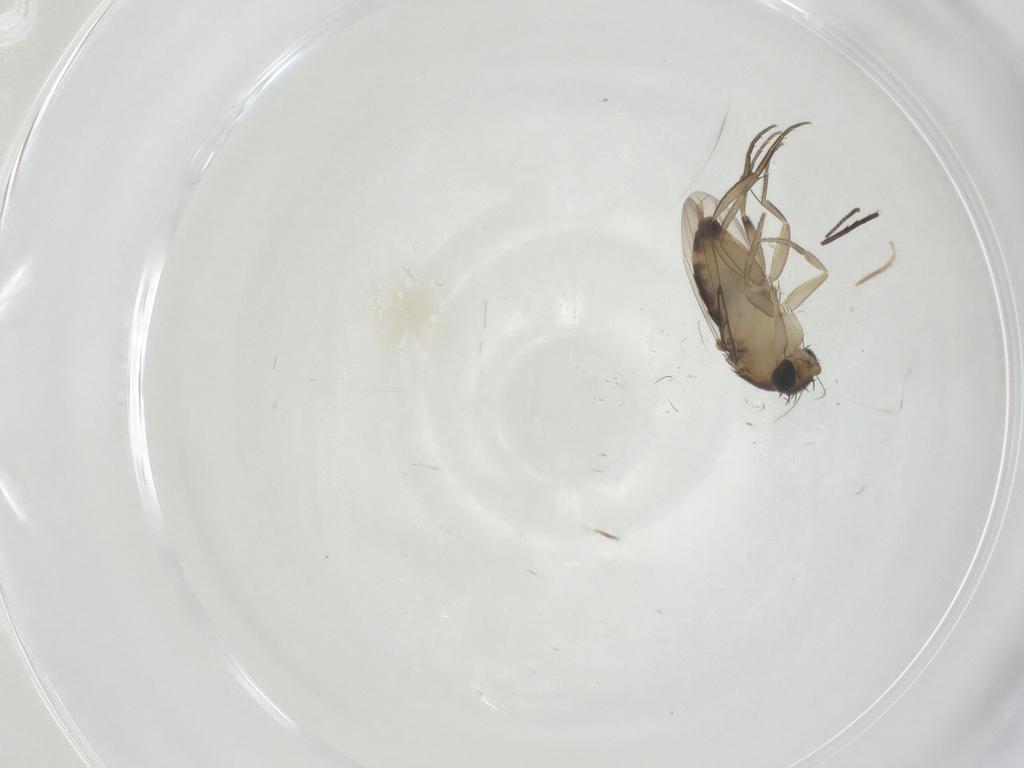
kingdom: Animalia
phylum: Arthropoda
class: Insecta
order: Diptera
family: Sciaridae
